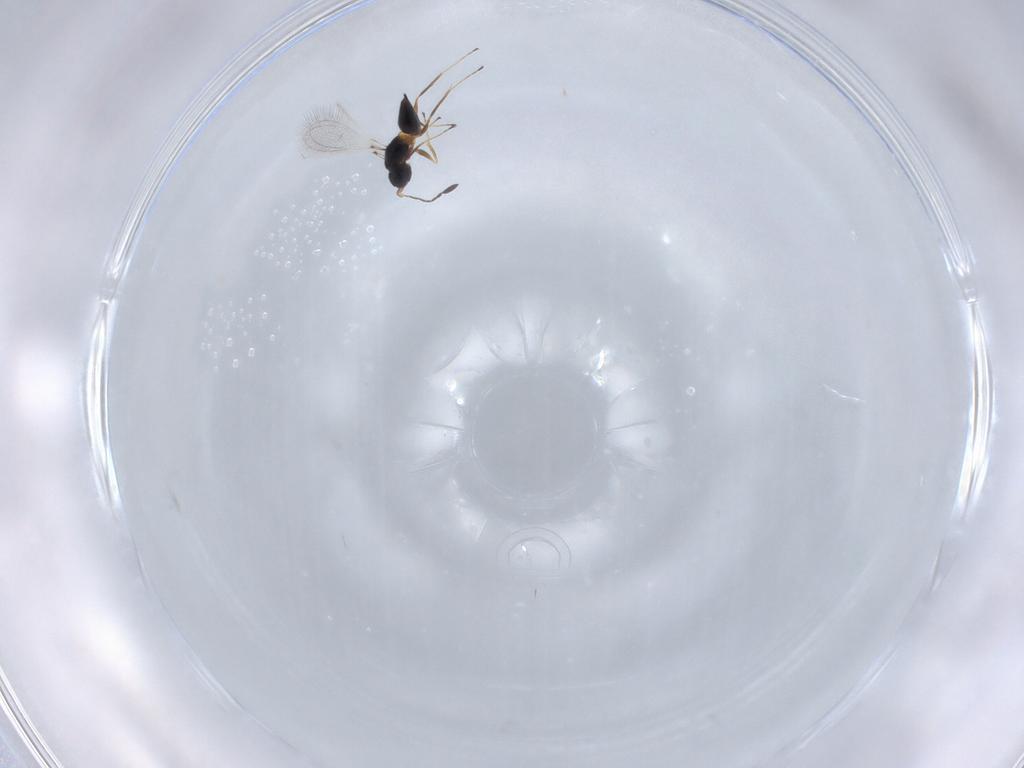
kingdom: Animalia
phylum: Arthropoda
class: Insecta
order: Hymenoptera
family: Mymaridae
